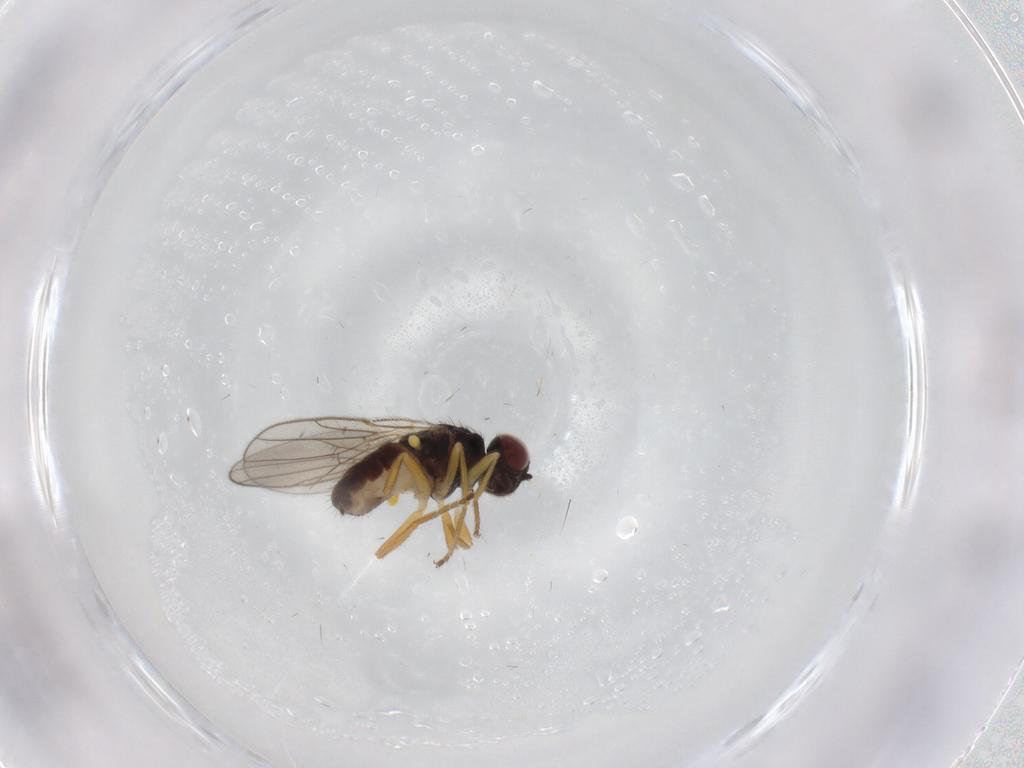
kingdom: Animalia
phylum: Arthropoda
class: Insecta
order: Diptera
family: Chloropidae
